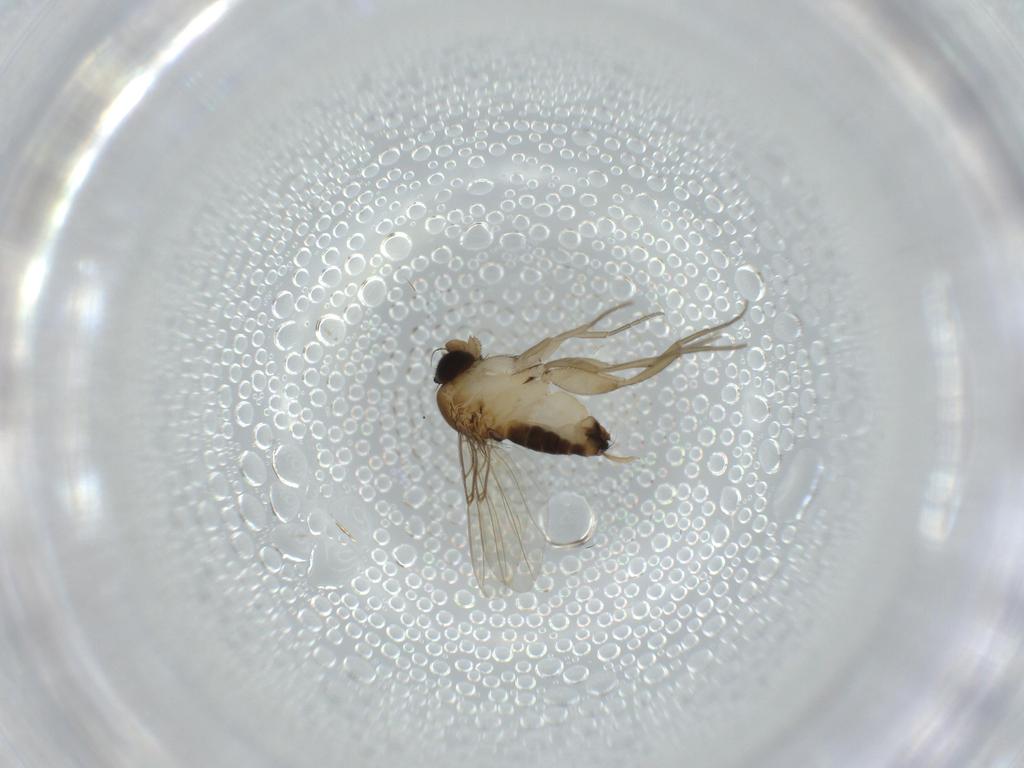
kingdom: Animalia
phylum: Arthropoda
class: Insecta
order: Diptera
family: Phoridae
